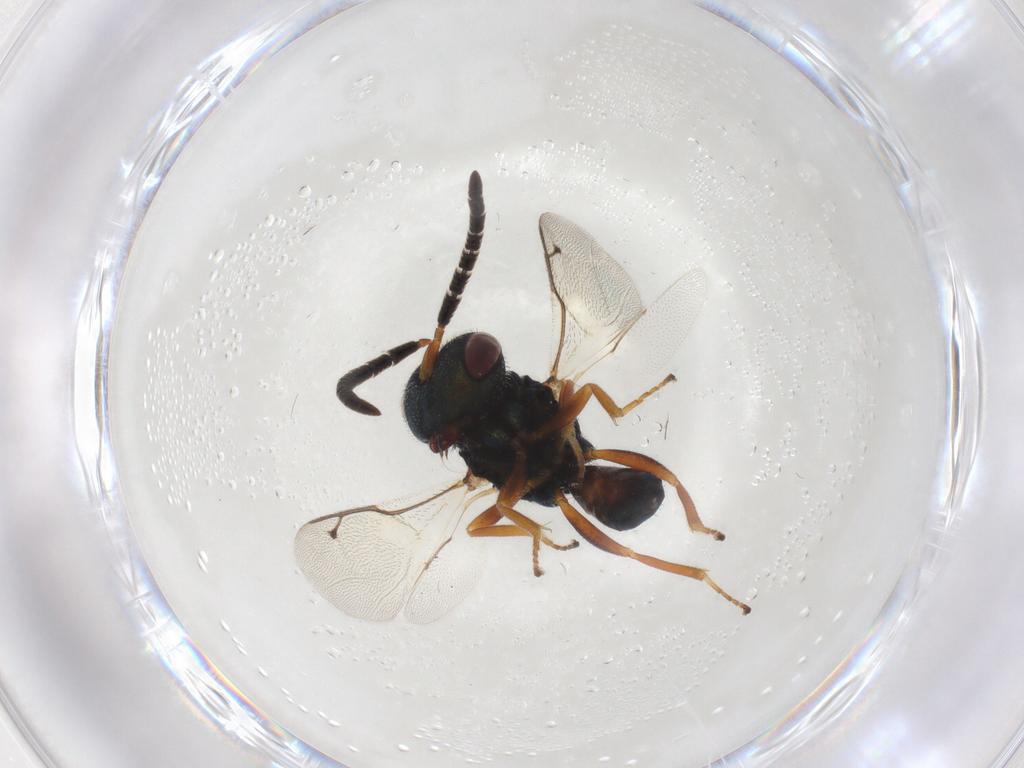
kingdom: Animalia
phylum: Arthropoda
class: Insecta
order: Hymenoptera
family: Pteromalidae
